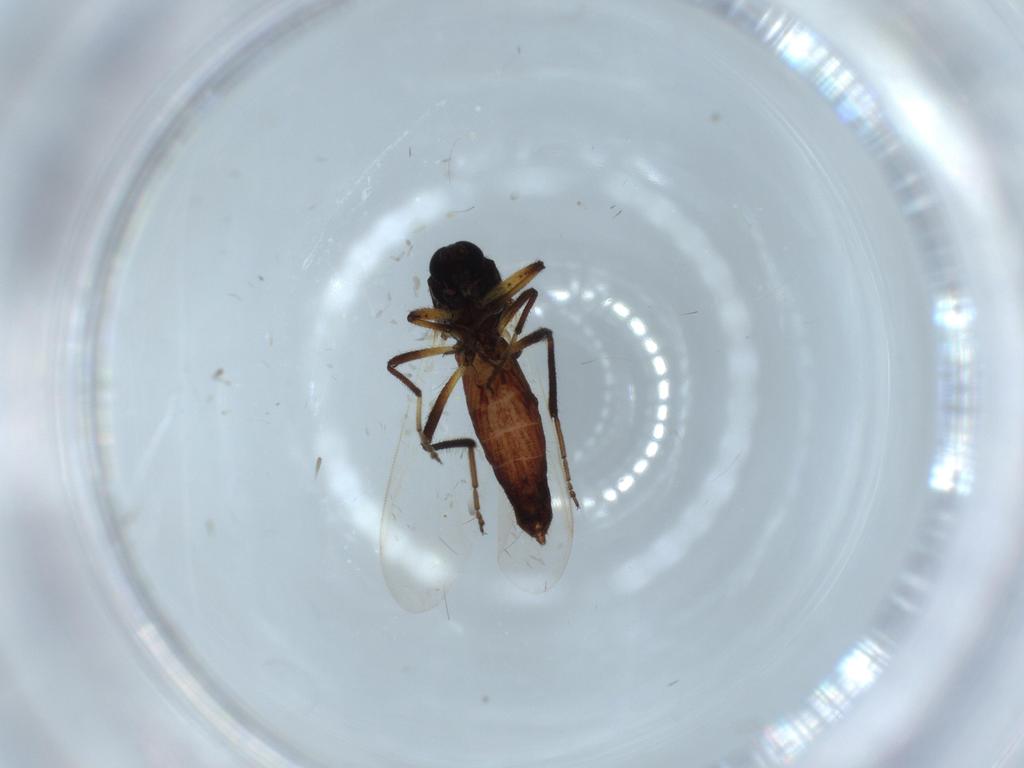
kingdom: Animalia
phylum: Arthropoda
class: Insecta
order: Diptera
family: Ceratopogonidae
